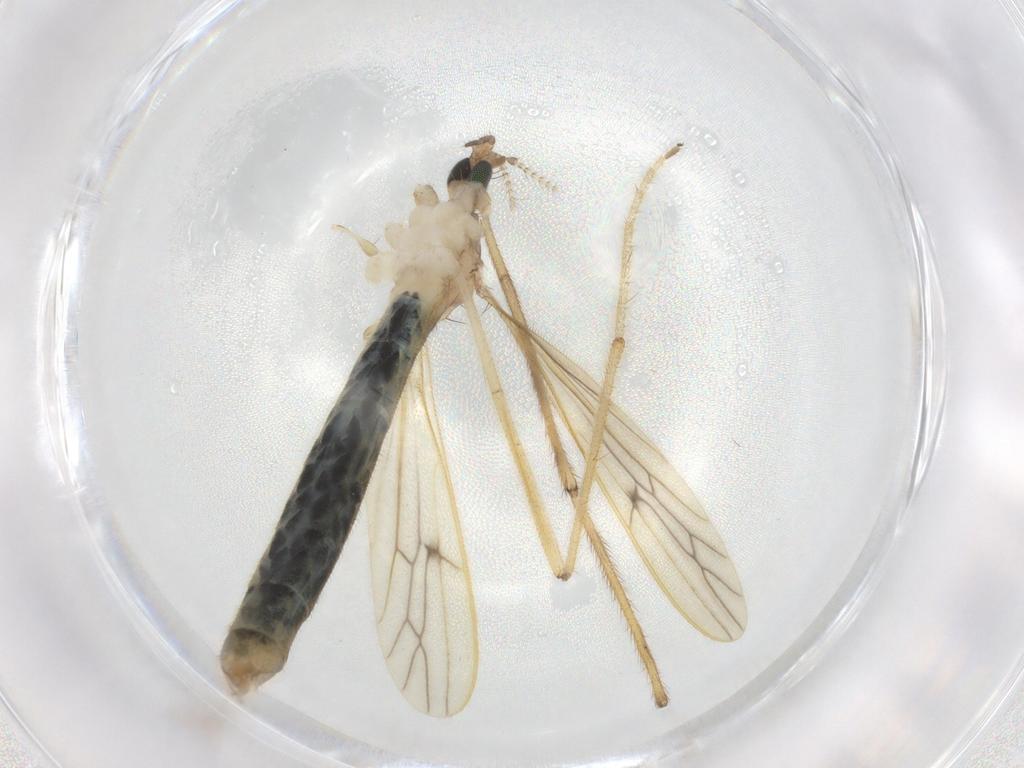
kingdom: Animalia
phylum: Arthropoda
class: Insecta
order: Diptera
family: Limoniidae
